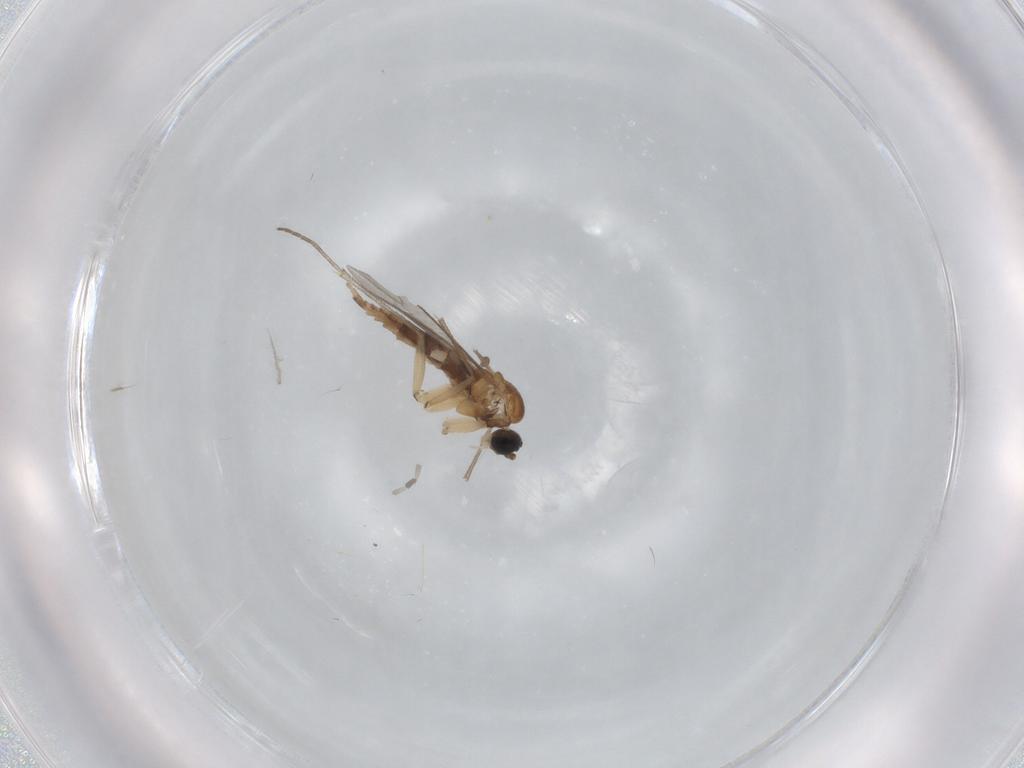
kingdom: Animalia
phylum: Arthropoda
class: Insecta
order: Diptera
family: Sciaridae
